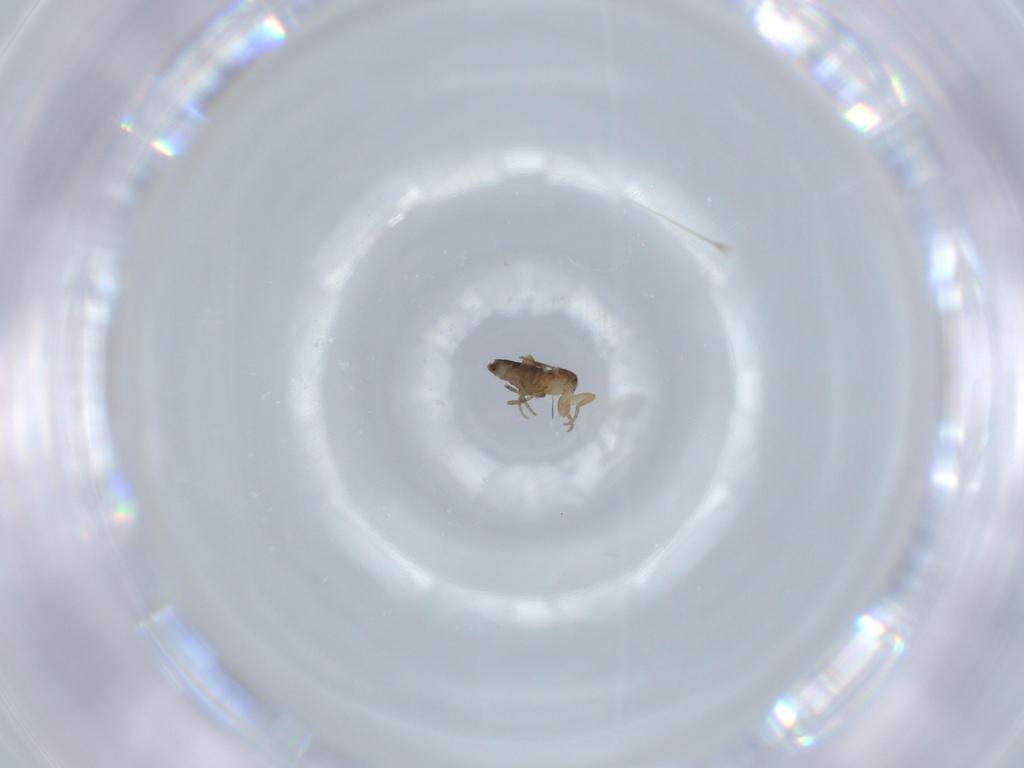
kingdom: Animalia
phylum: Arthropoda
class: Insecta
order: Diptera
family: Phoridae
